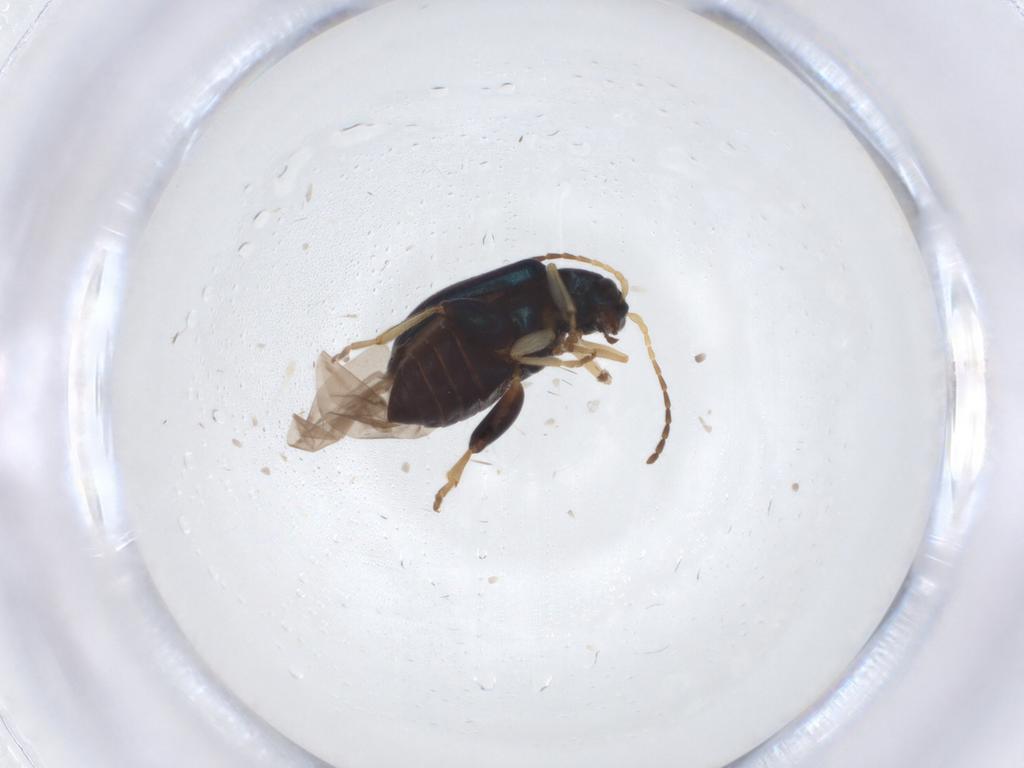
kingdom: Animalia
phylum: Arthropoda
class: Insecta
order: Coleoptera
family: Chrysomelidae
